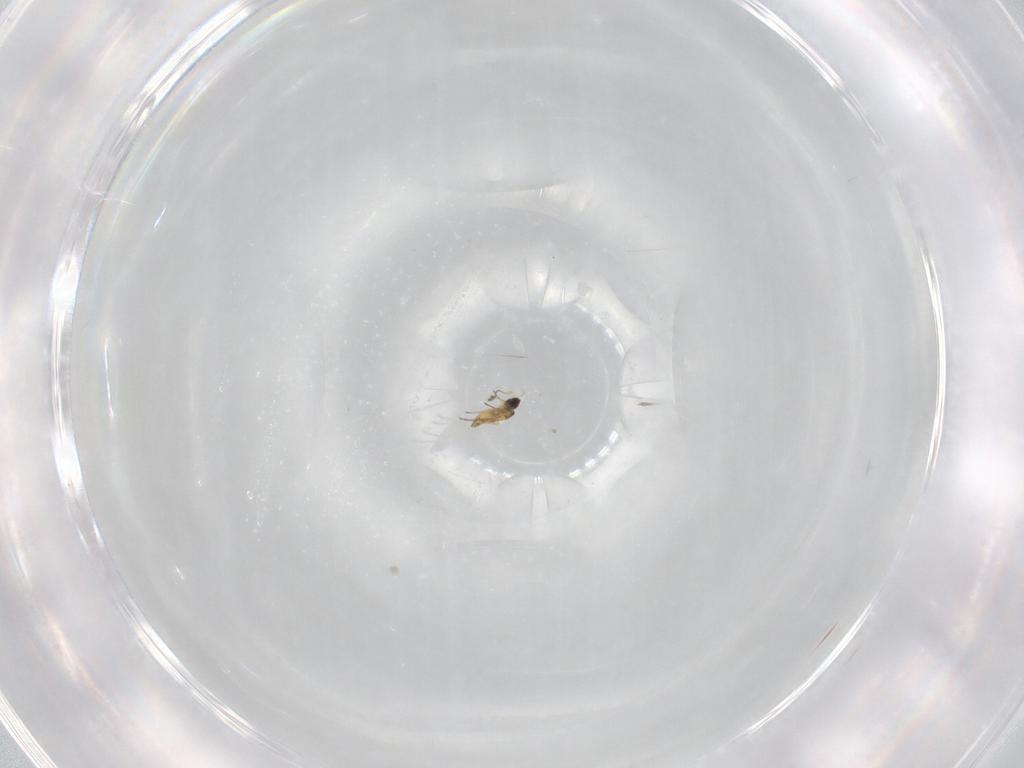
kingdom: Animalia
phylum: Arthropoda
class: Insecta
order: Hymenoptera
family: Mymaridae
